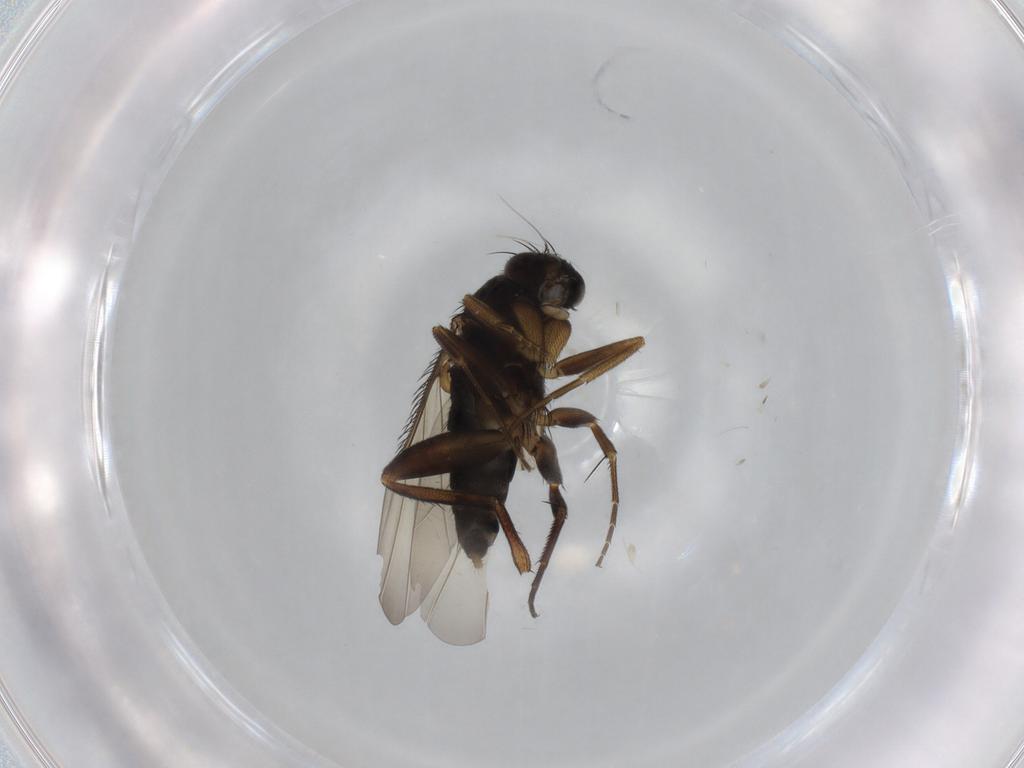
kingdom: Animalia
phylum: Arthropoda
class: Insecta
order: Diptera
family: Phoridae
